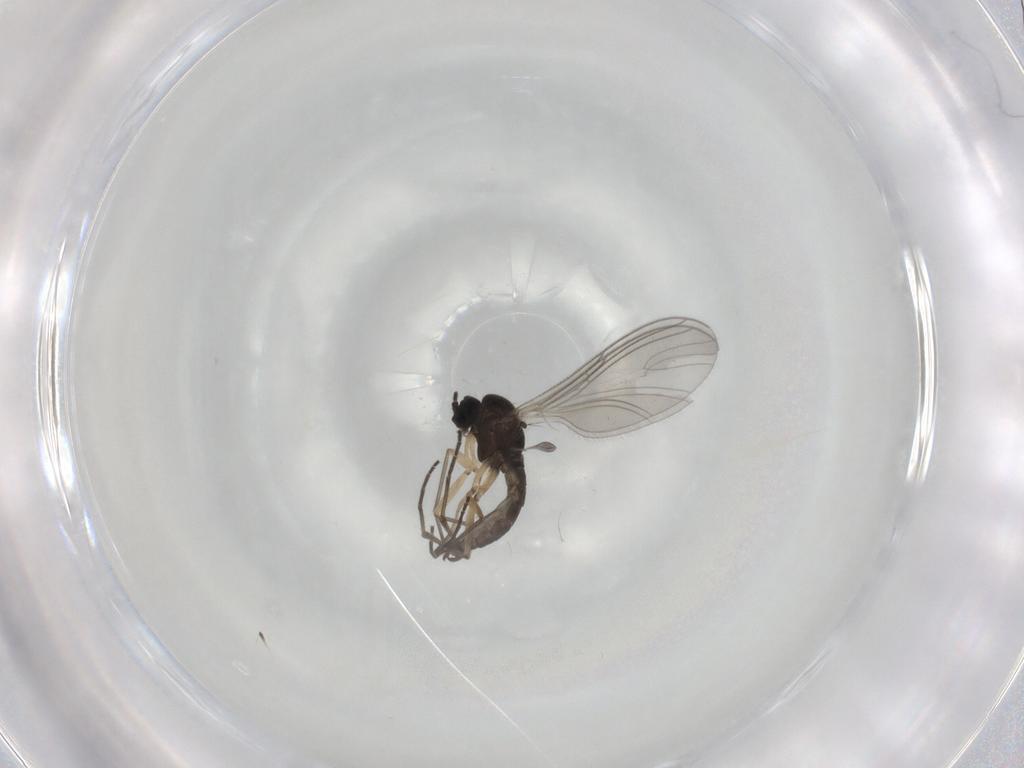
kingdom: Animalia
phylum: Arthropoda
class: Insecta
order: Diptera
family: Sciaridae
